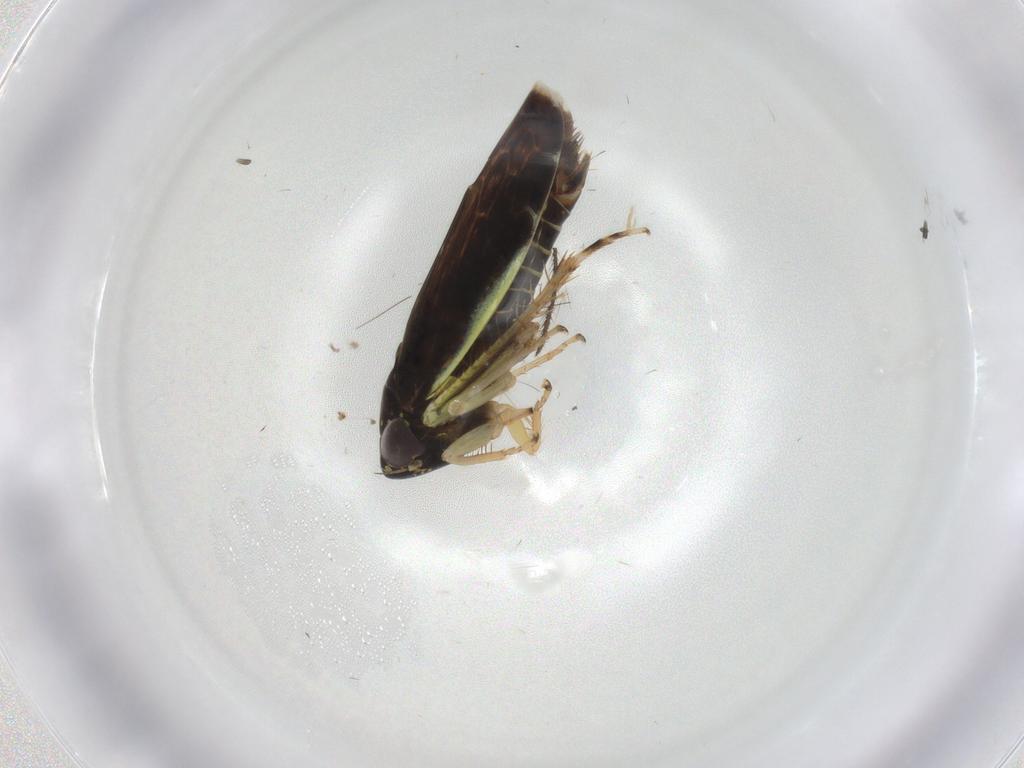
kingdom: Animalia
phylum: Arthropoda
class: Insecta
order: Hemiptera
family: Cicadellidae
